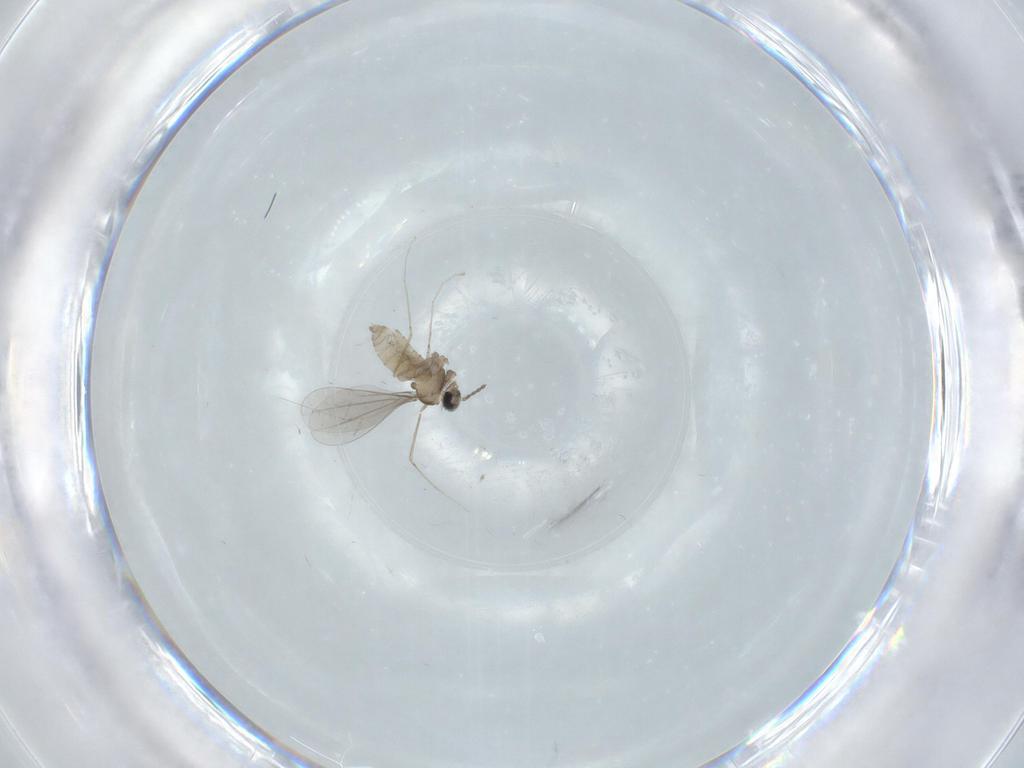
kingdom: Animalia
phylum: Arthropoda
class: Insecta
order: Diptera
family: Cecidomyiidae
